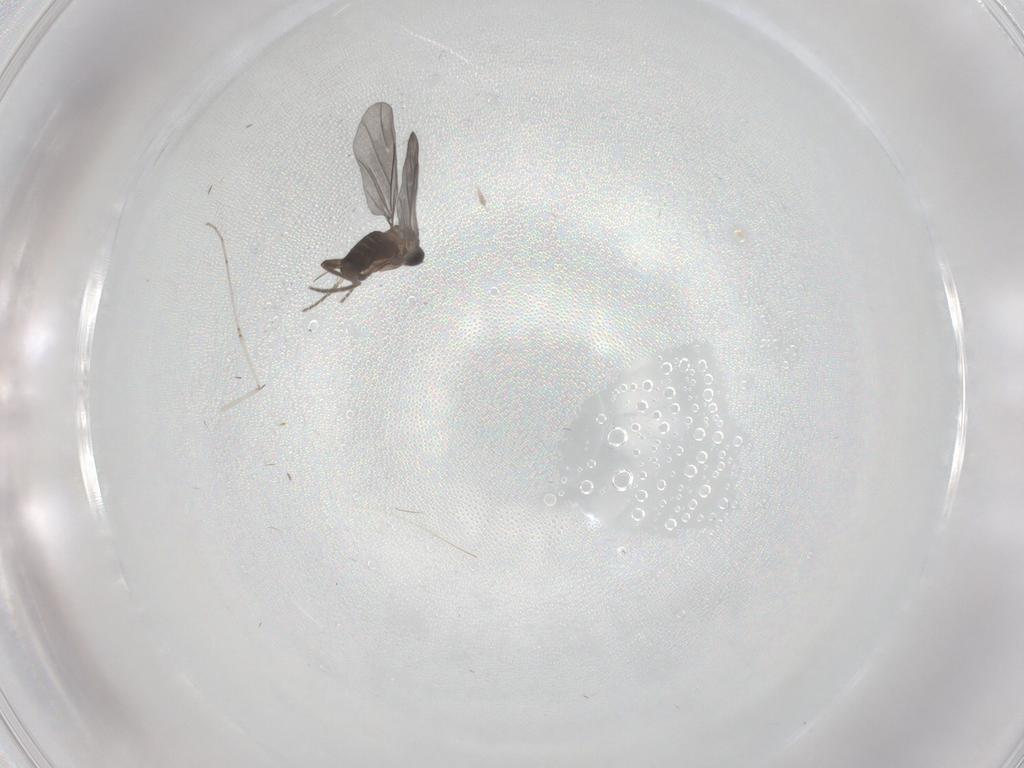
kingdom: Animalia
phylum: Arthropoda
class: Insecta
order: Diptera
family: Phoridae
